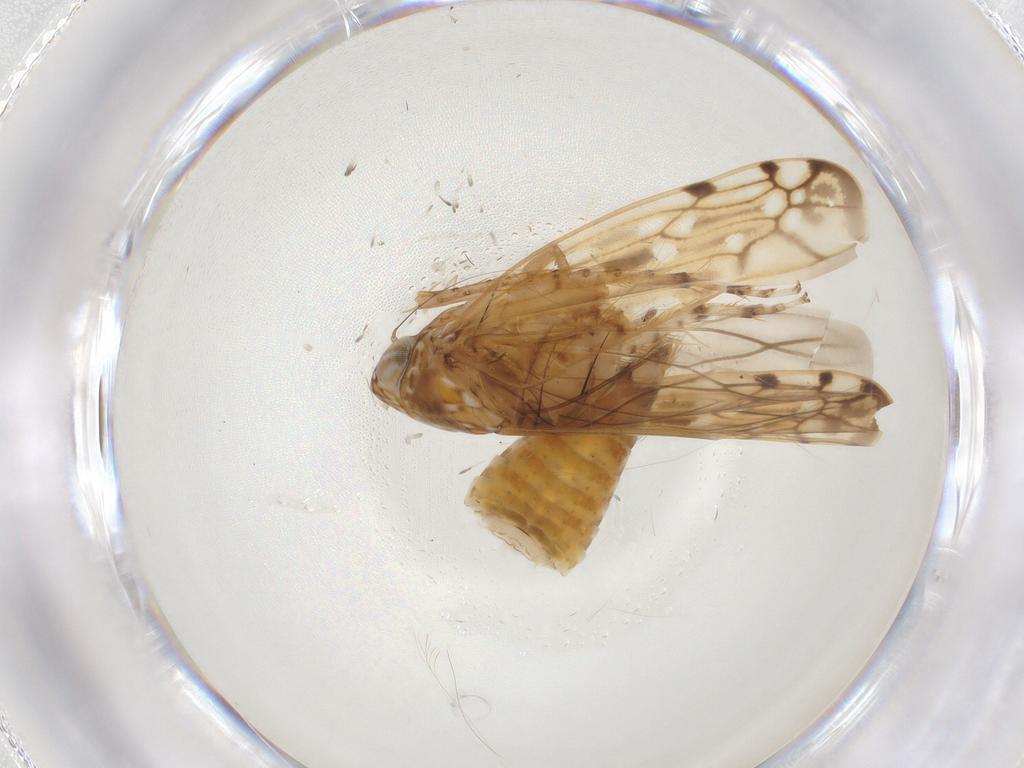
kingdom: Animalia
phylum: Arthropoda
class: Insecta
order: Hemiptera
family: Cicadellidae
